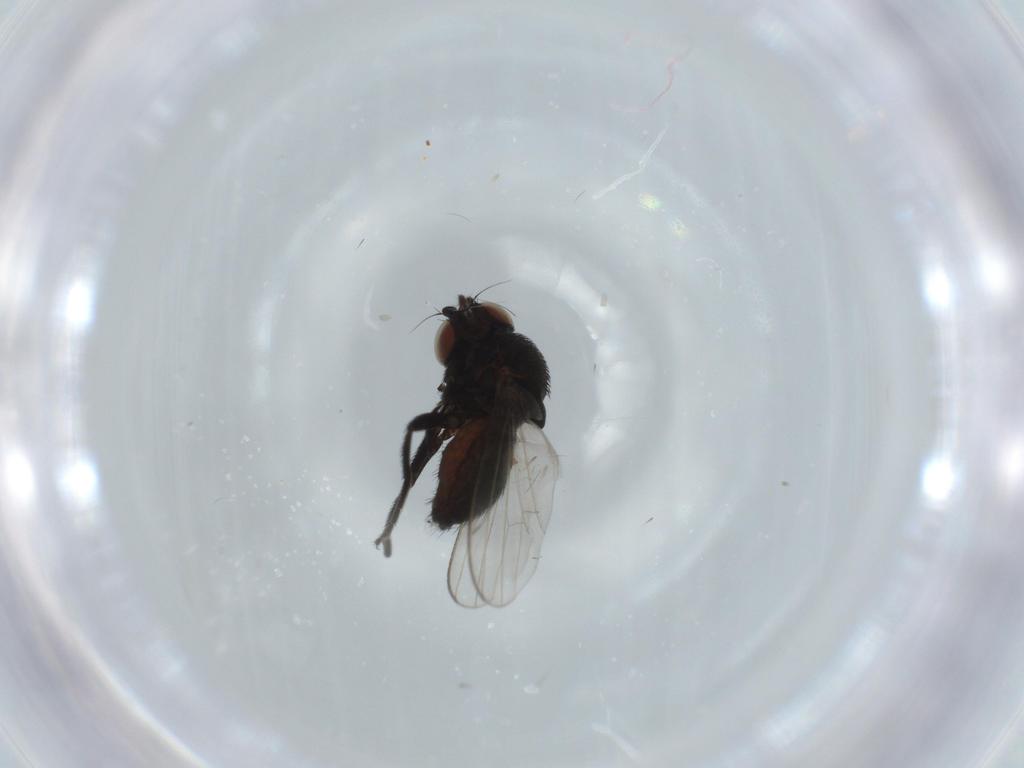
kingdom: Animalia
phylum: Arthropoda
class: Insecta
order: Diptera
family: Milichiidae
